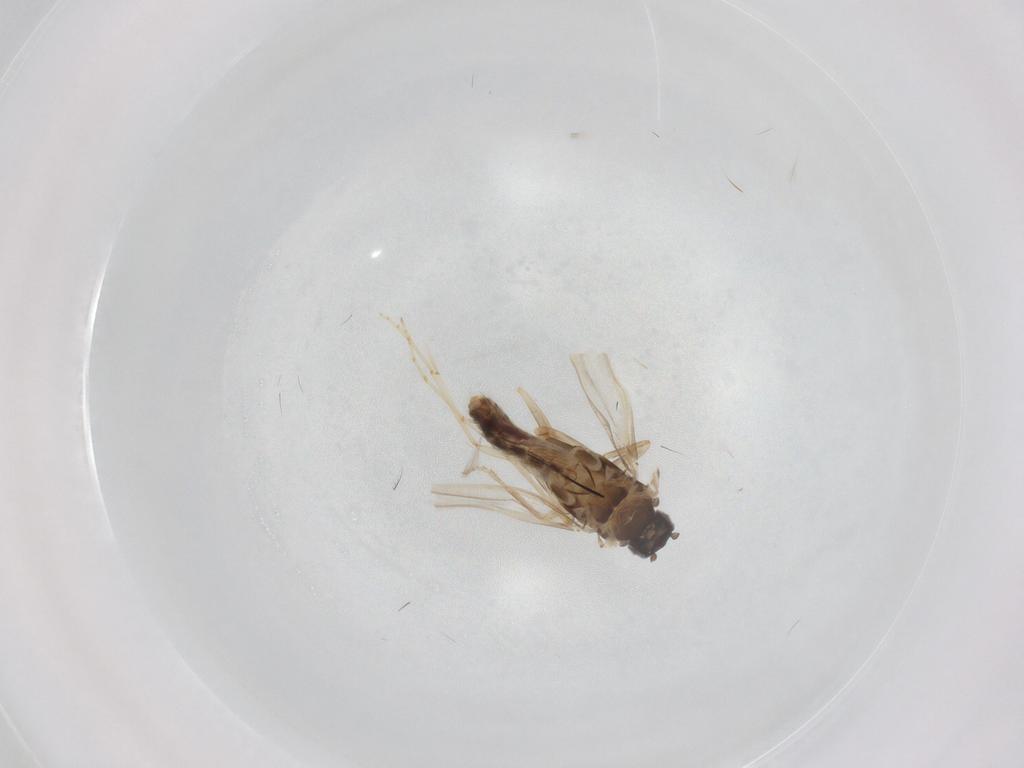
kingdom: Animalia
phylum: Arthropoda
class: Insecta
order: Trichoptera
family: Hydroptilidae
